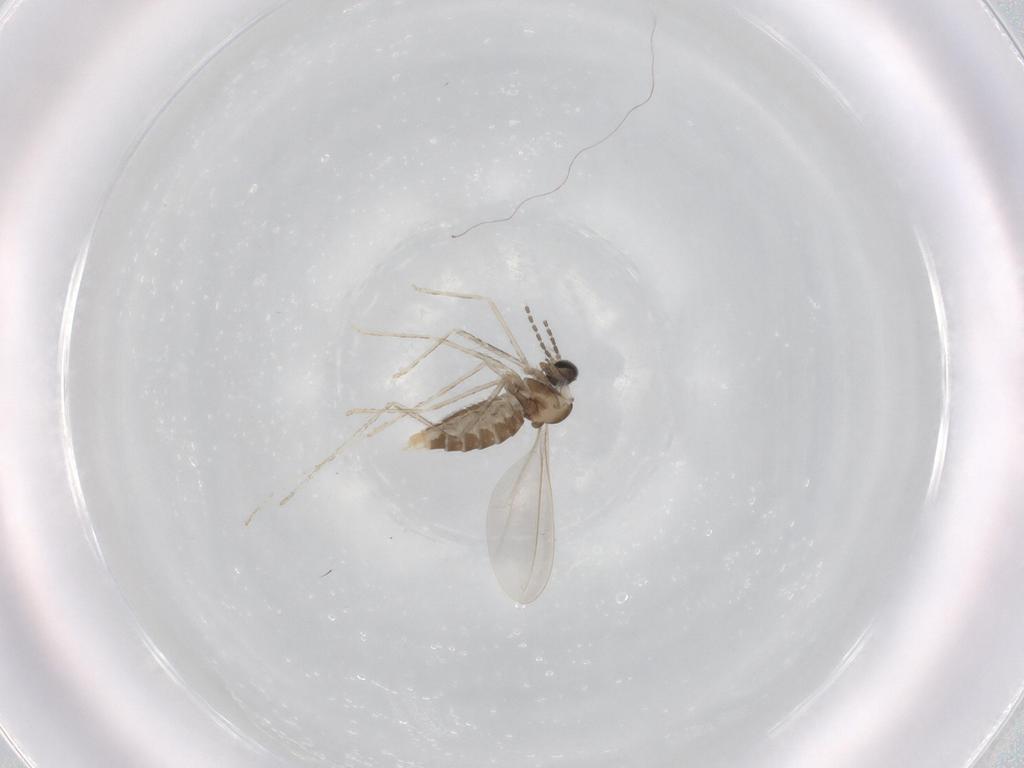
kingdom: Animalia
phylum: Arthropoda
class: Insecta
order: Diptera
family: Cecidomyiidae
